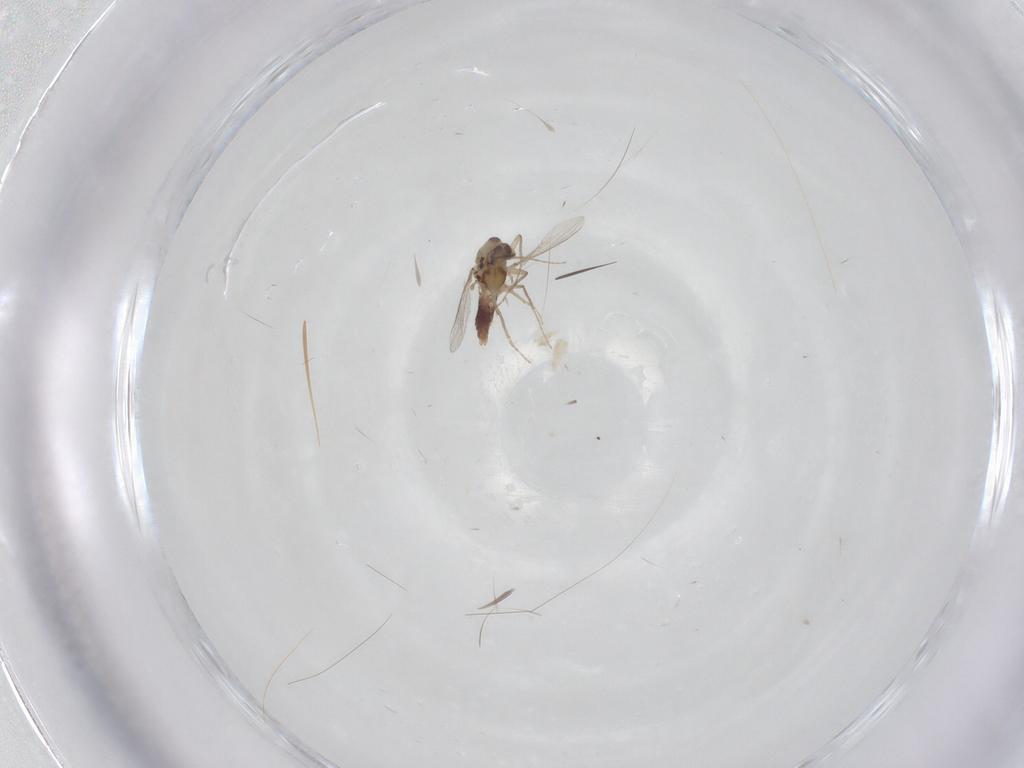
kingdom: Animalia
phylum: Arthropoda
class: Insecta
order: Diptera
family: Chironomidae
